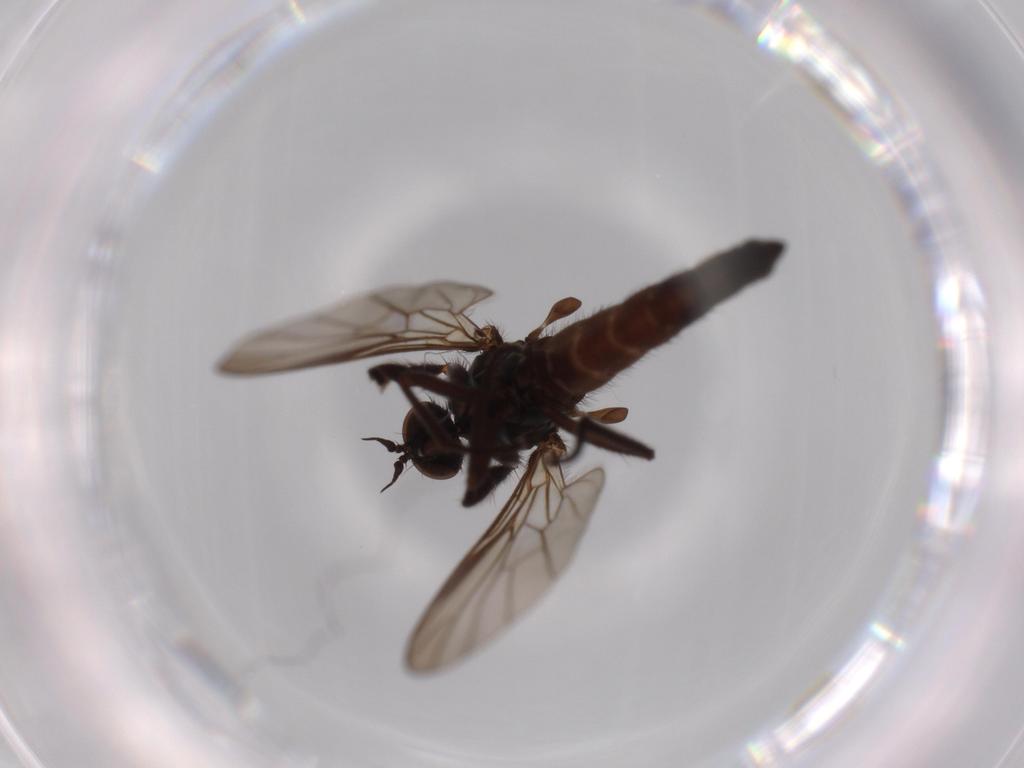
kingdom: Animalia
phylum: Arthropoda
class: Insecta
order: Diptera
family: Empididae
